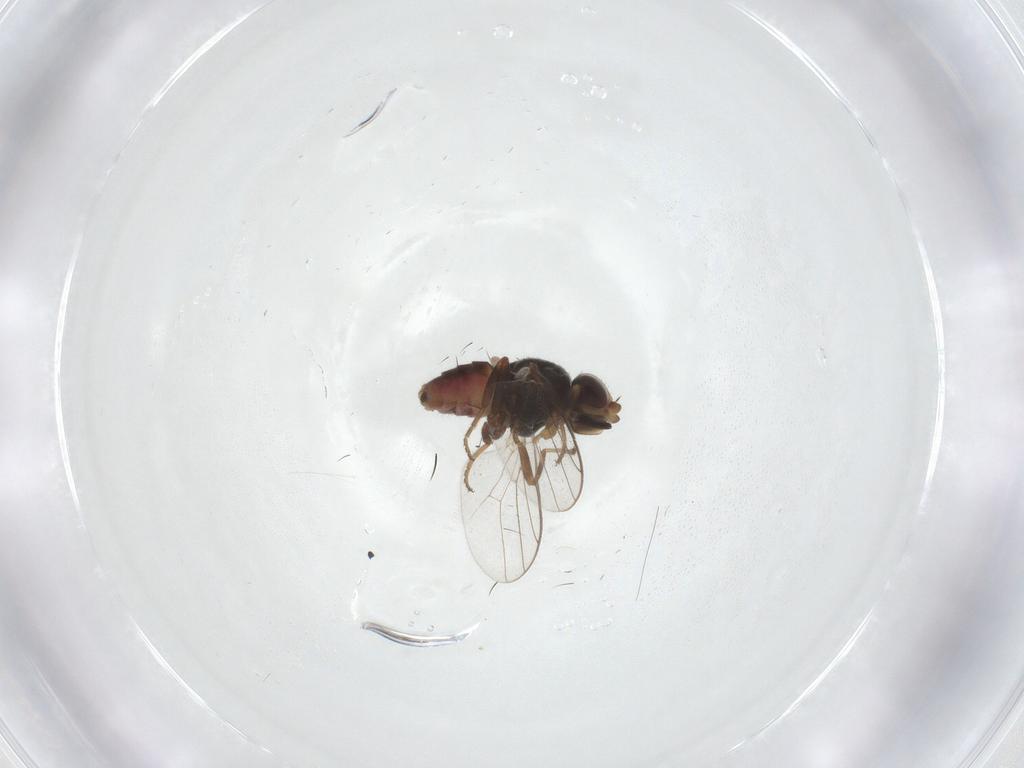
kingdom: Animalia
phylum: Arthropoda
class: Insecta
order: Diptera
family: Chloropidae
